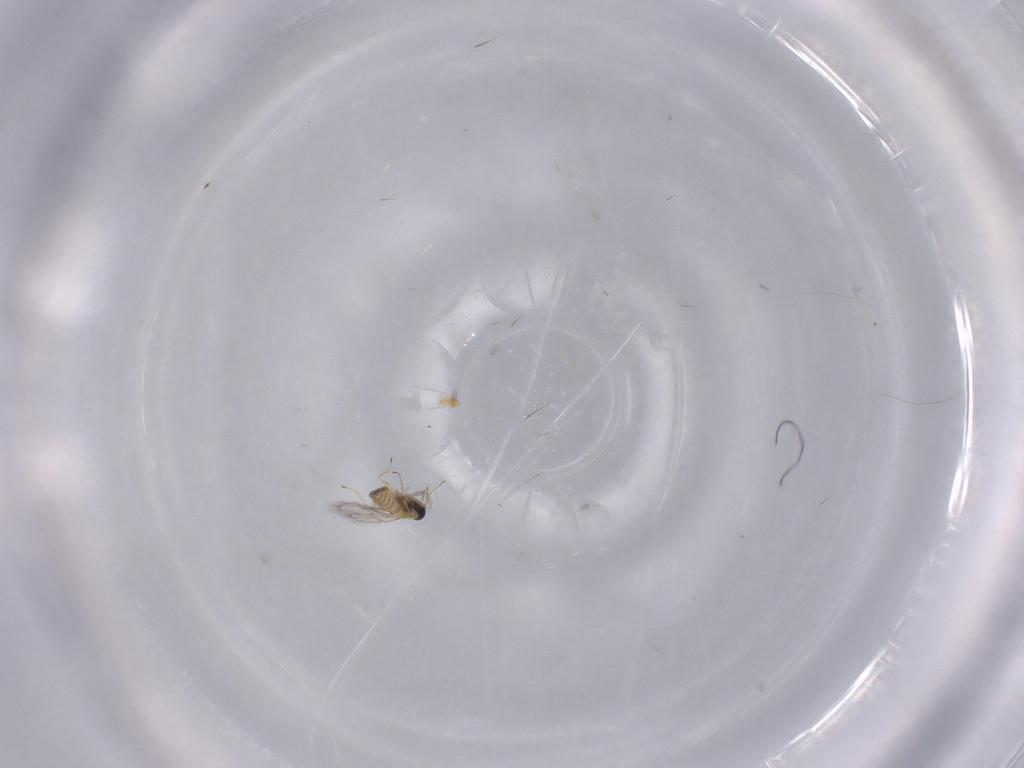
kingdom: Animalia
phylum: Arthropoda
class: Insecta
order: Hymenoptera
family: Trichogrammatidae
